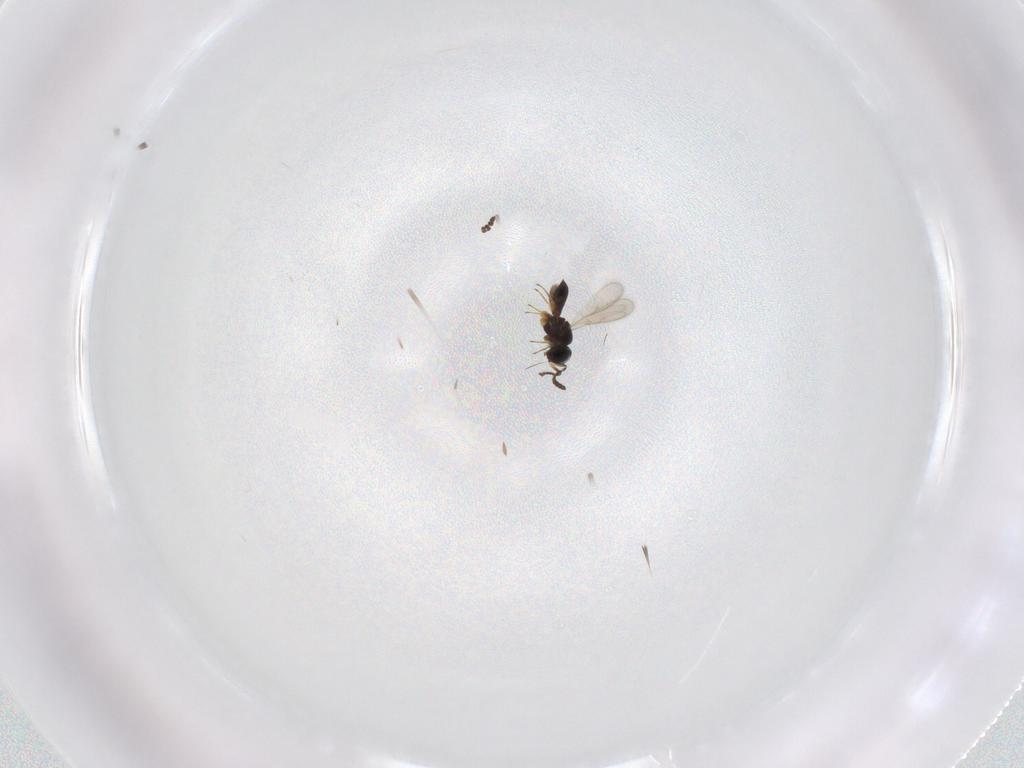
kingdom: Animalia
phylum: Arthropoda
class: Insecta
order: Hymenoptera
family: Scelionidae
